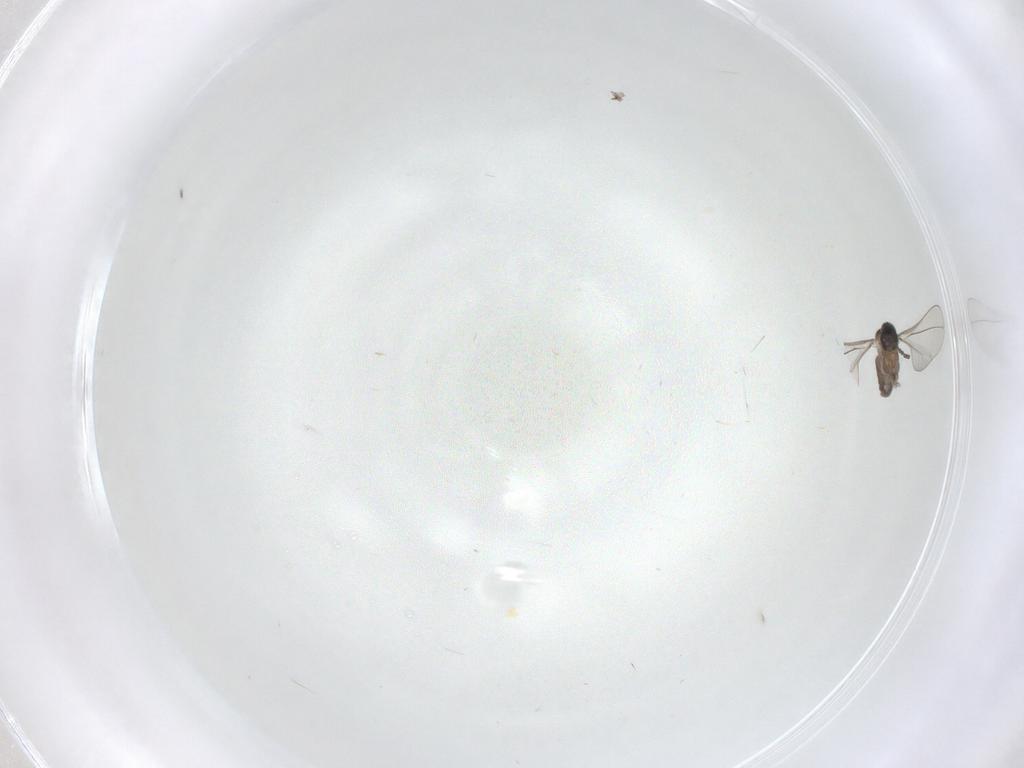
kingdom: Animalia
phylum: Arthropoda
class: Insecta
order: Diptera
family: Cecidomyiidae
